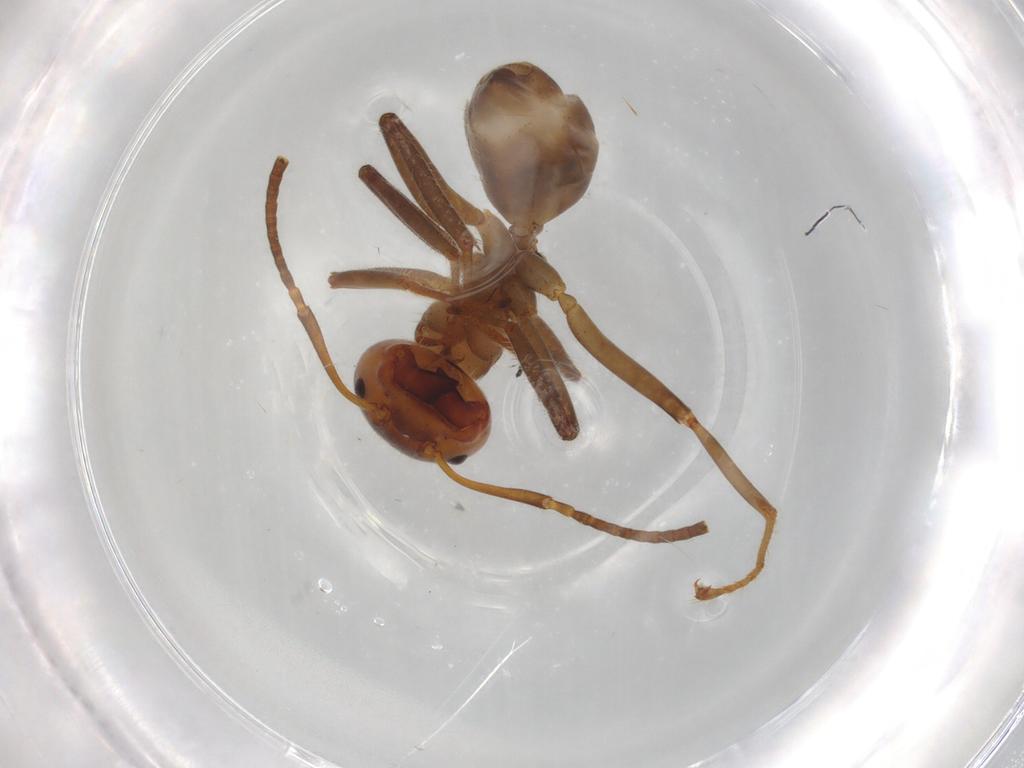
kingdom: Animalia
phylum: Arthropoda
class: Insecta
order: Hymenoptera
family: Formicidae
